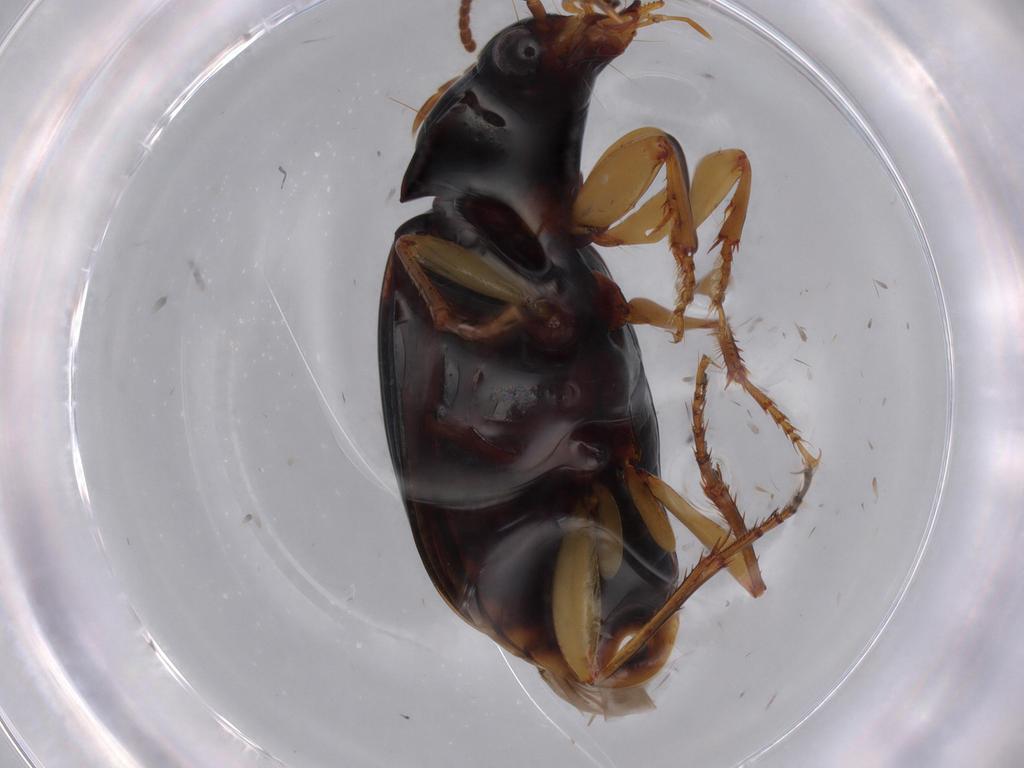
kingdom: Animalia
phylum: Arthropoda
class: Insecta
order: Coleoptera
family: Carabidae
